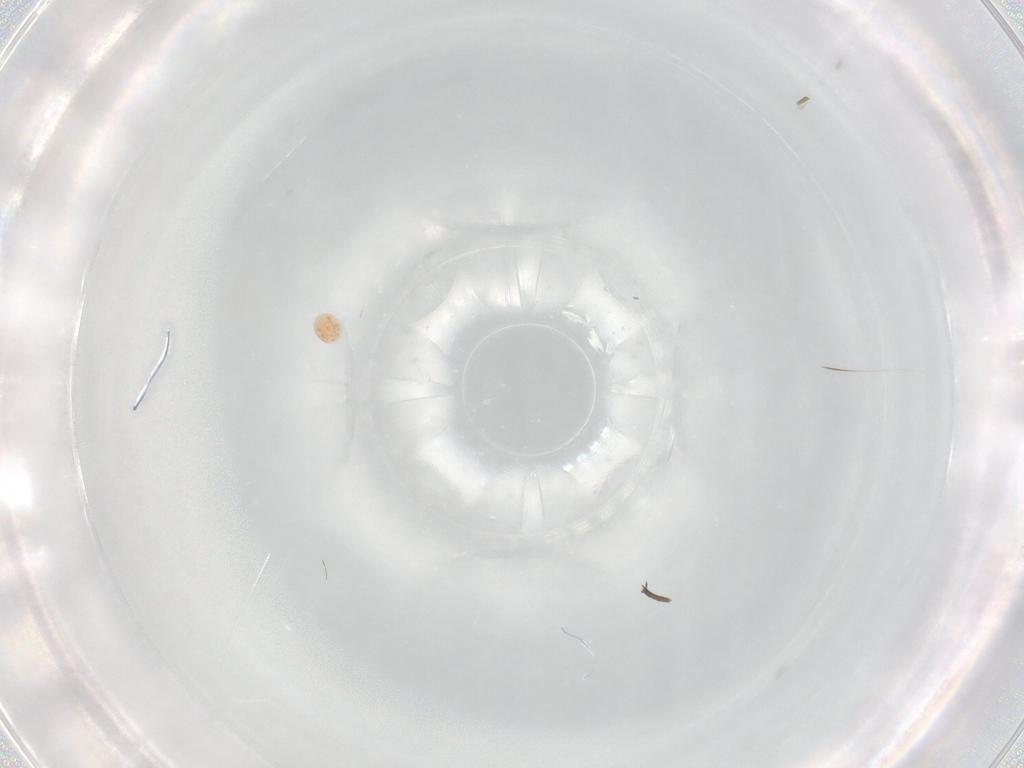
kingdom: Animalia
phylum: Arthropoda
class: Arachnida
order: Trombidiformes
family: Scutacaridae
